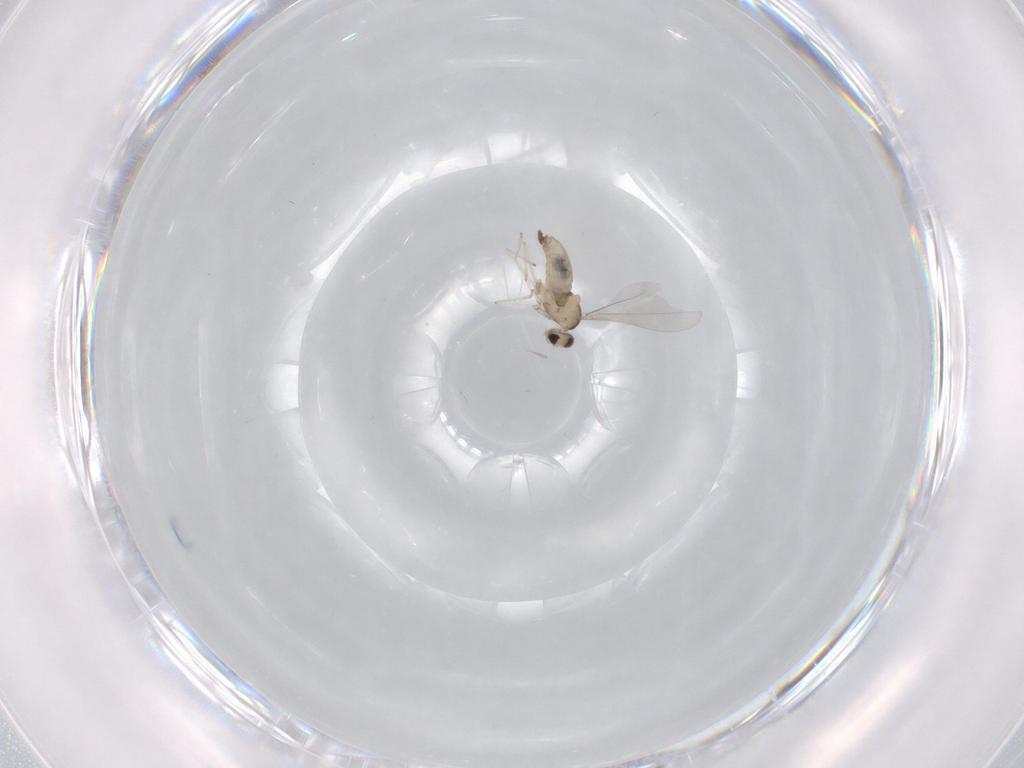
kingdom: Animalia
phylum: Arthropoda
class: Insecta
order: Diptera
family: Cecidomyiidae
